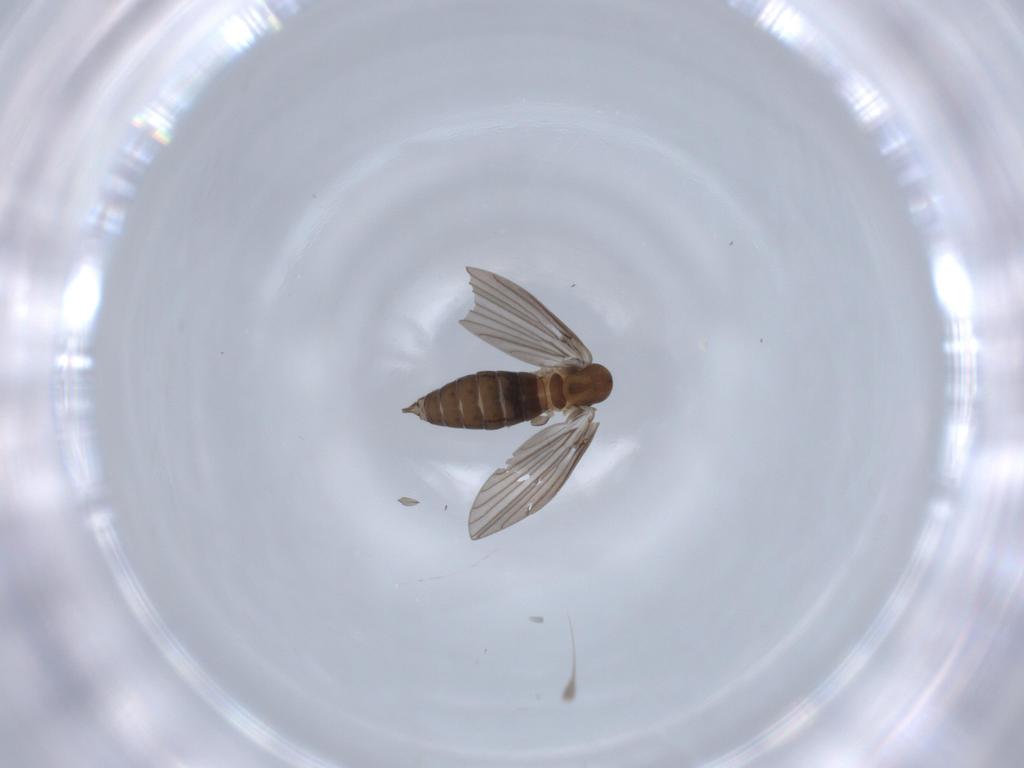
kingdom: Animalia
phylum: Arthropoda
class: Insecta
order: Diptera
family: Psychodidae
